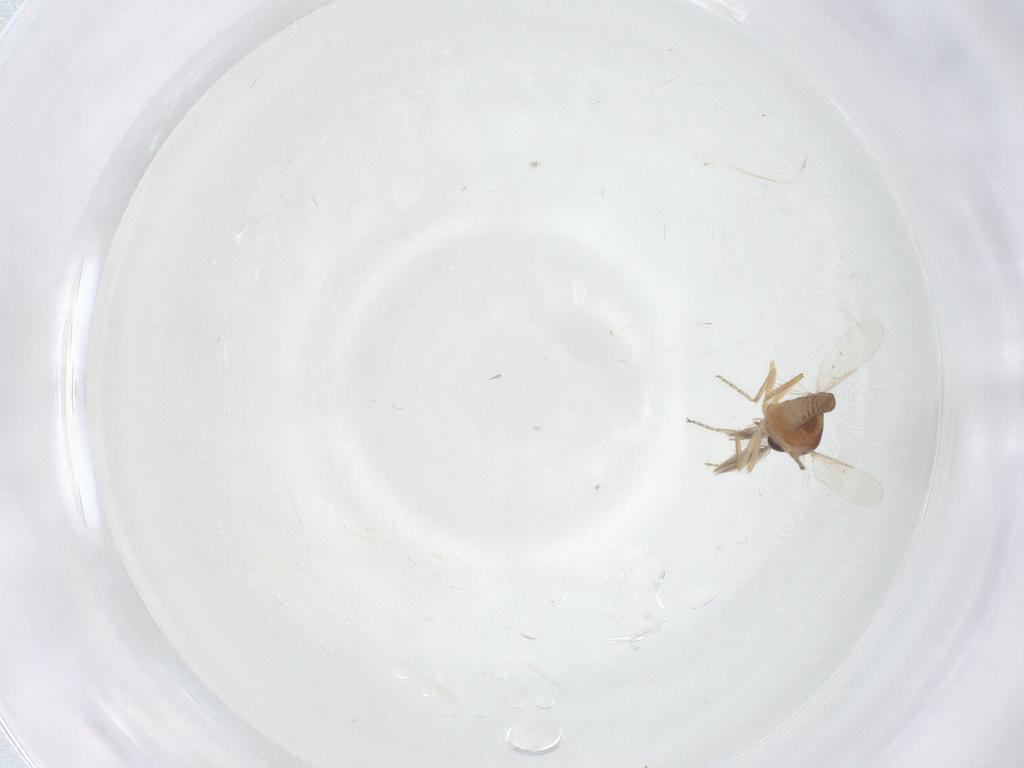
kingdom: Animalia
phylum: Arthropoda
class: Insecta
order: Diptera
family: Ceratopogonidae
